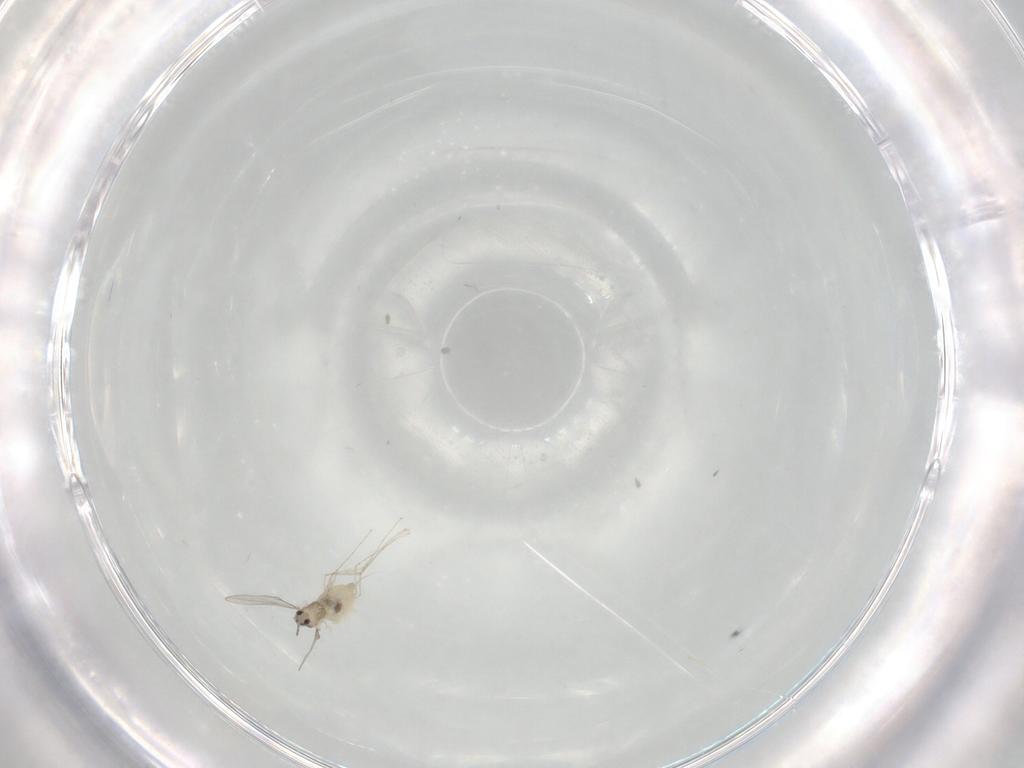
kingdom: Animalia
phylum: Arthropoda
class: Insecta
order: Diptera
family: Cecidomyiidae
